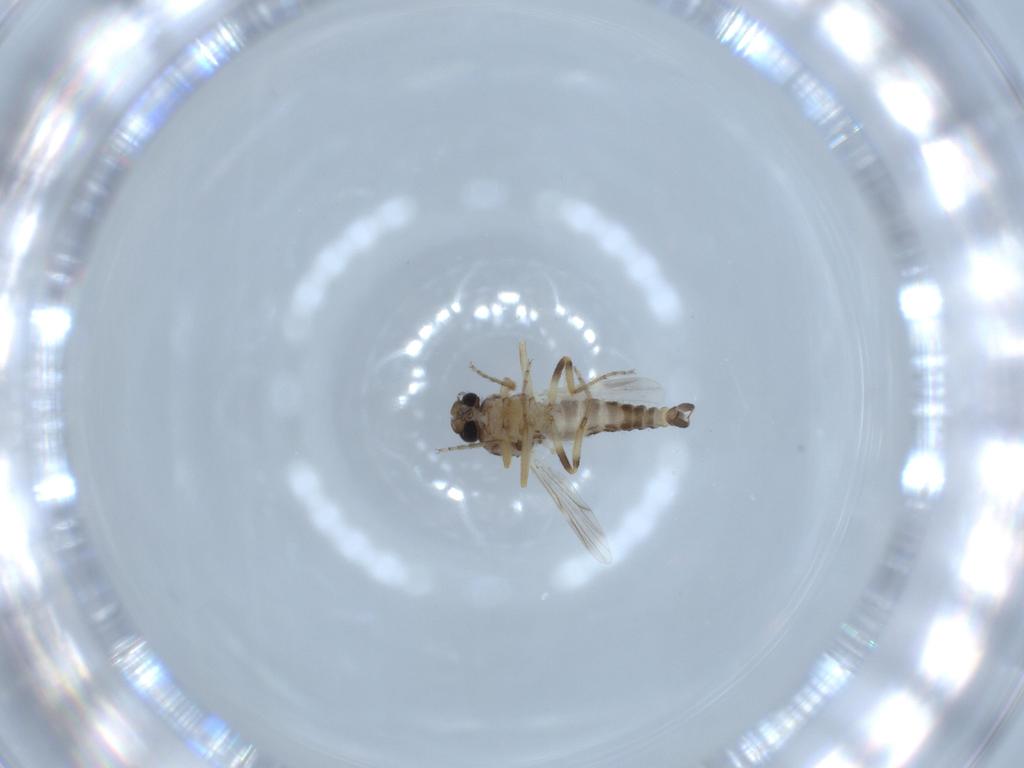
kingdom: Animalia
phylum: Arthropoda
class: Insecta
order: Diptera
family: Ceratopogonidae
